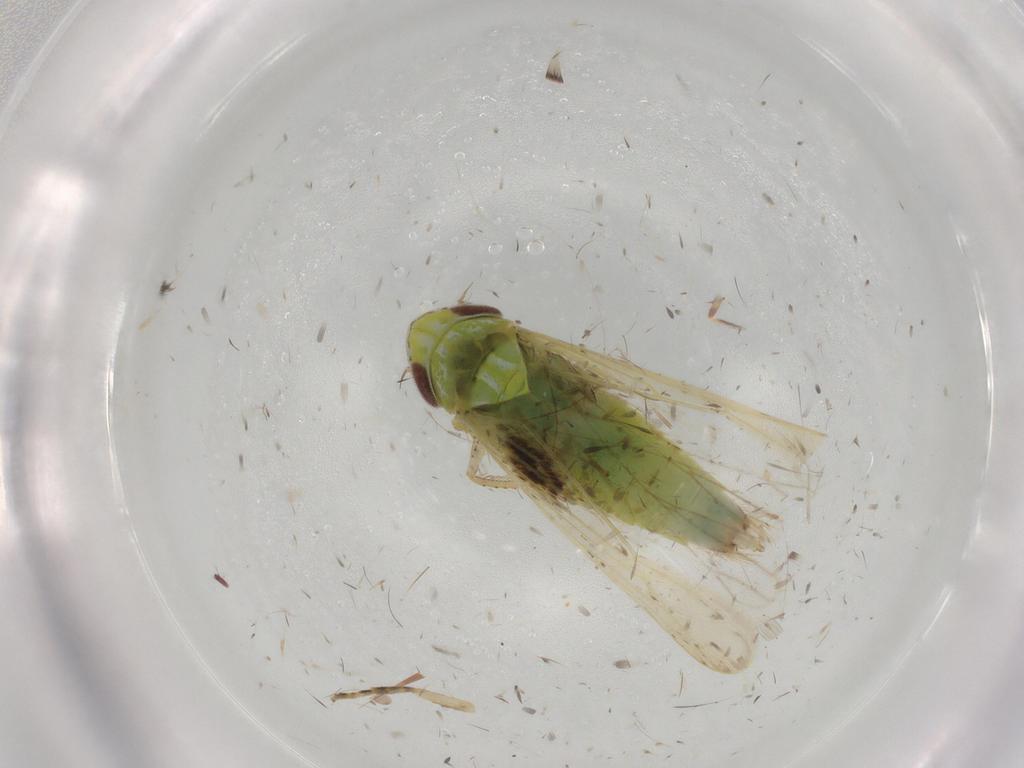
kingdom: Animalia
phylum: Arthropoda
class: Insecta
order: Hemiptera
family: Cicadellidae
